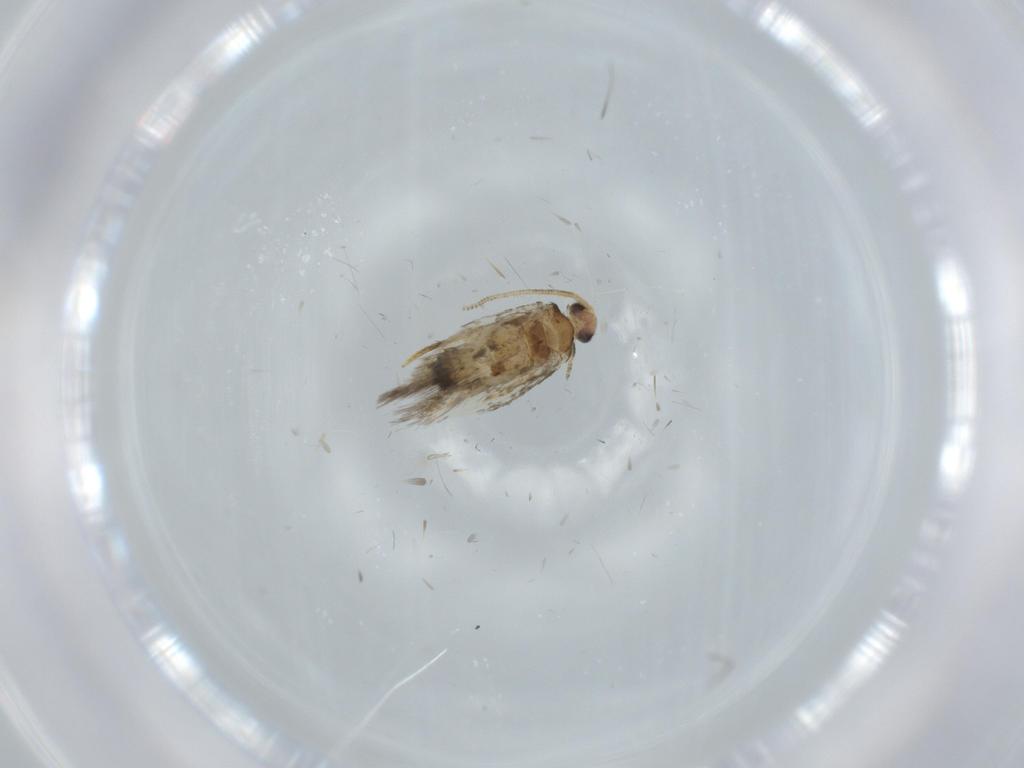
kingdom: Animalia
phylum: Arthropoda
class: Insecta
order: Lepidoptera
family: Nepticulidae
